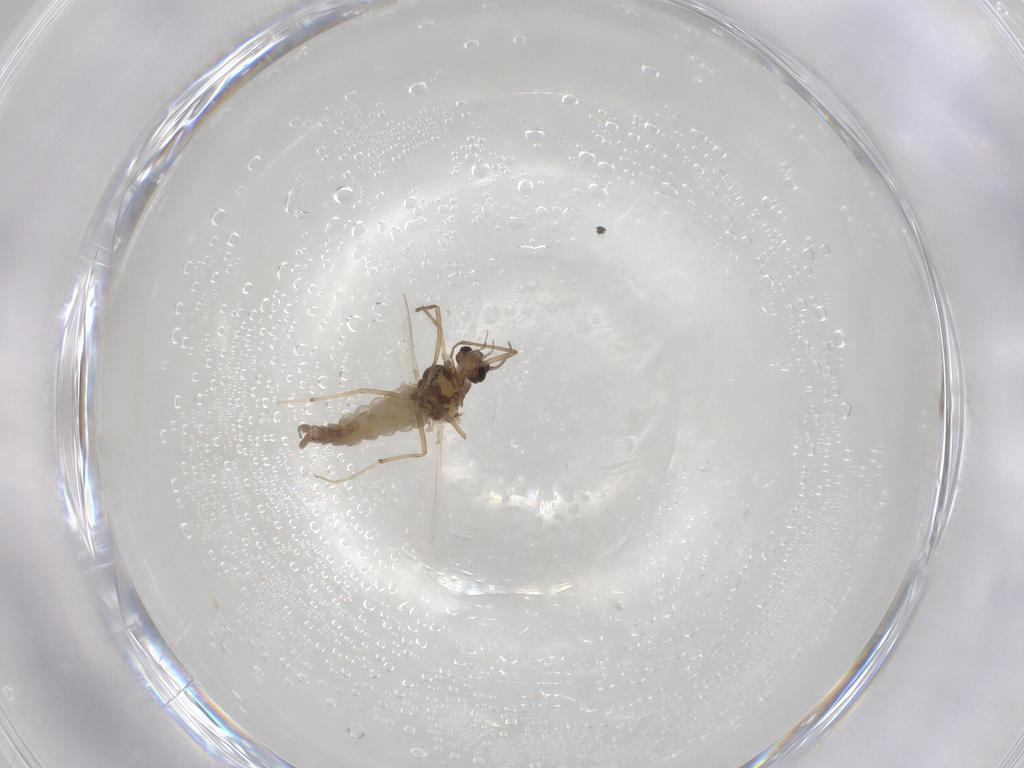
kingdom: Animalia
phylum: Arthropoda
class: Insecta
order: Diptera
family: Chironomidae
